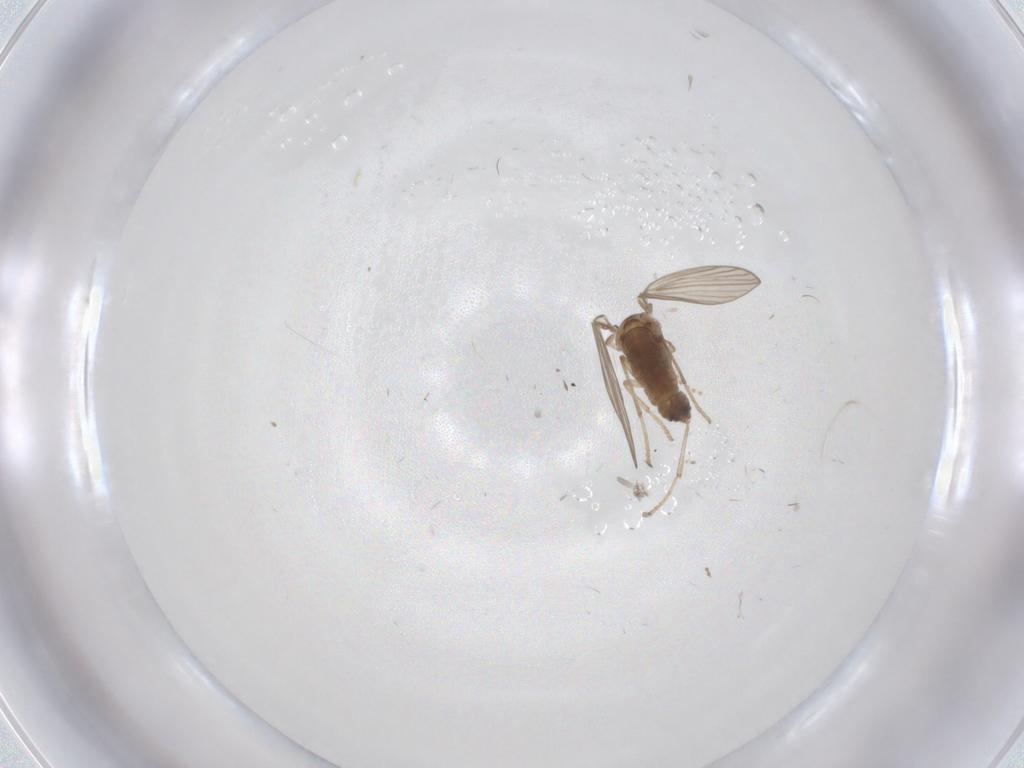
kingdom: Animalia
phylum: Arthropoda
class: Insecta
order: Diptera
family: Psychodidae
